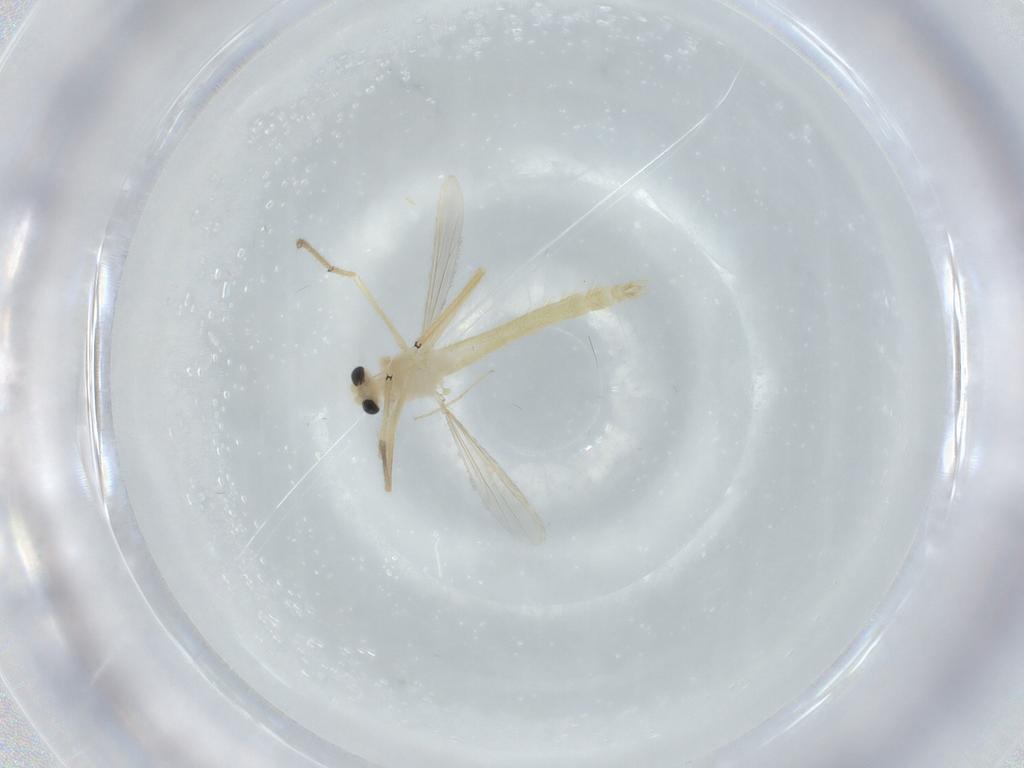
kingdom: Animalia
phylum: Arthropoda
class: Insecta
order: Diptera
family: Chironomidae
